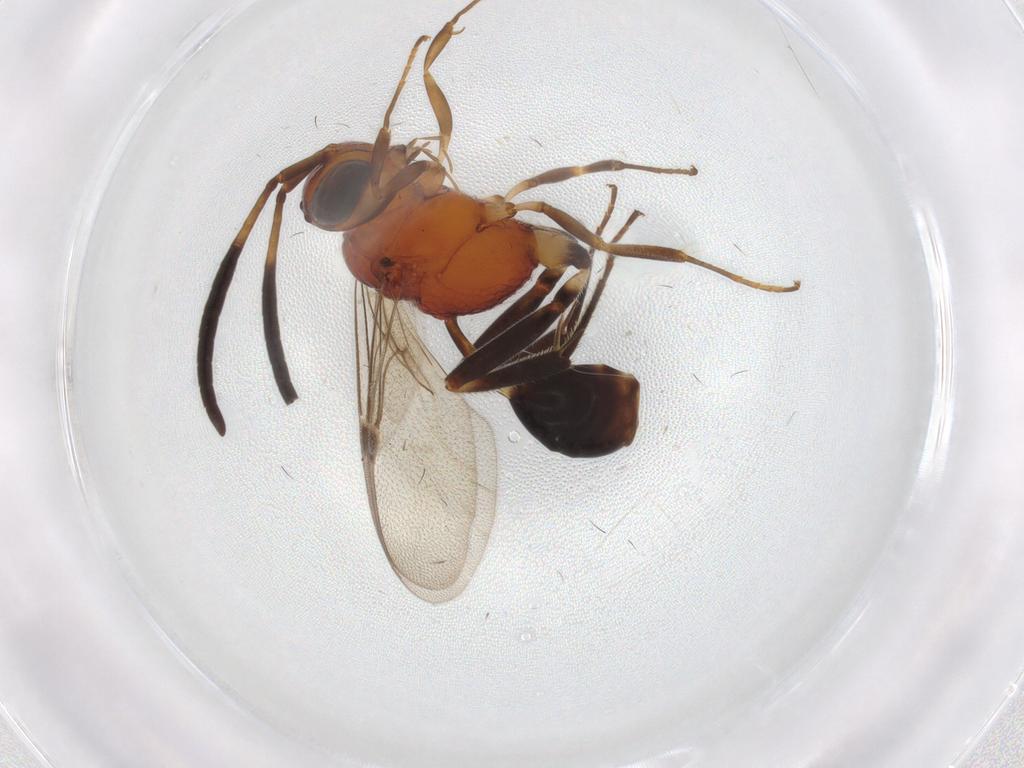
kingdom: Animalia
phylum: Arthropoda
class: Insecta
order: Hymenoptera
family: Evaniidae
